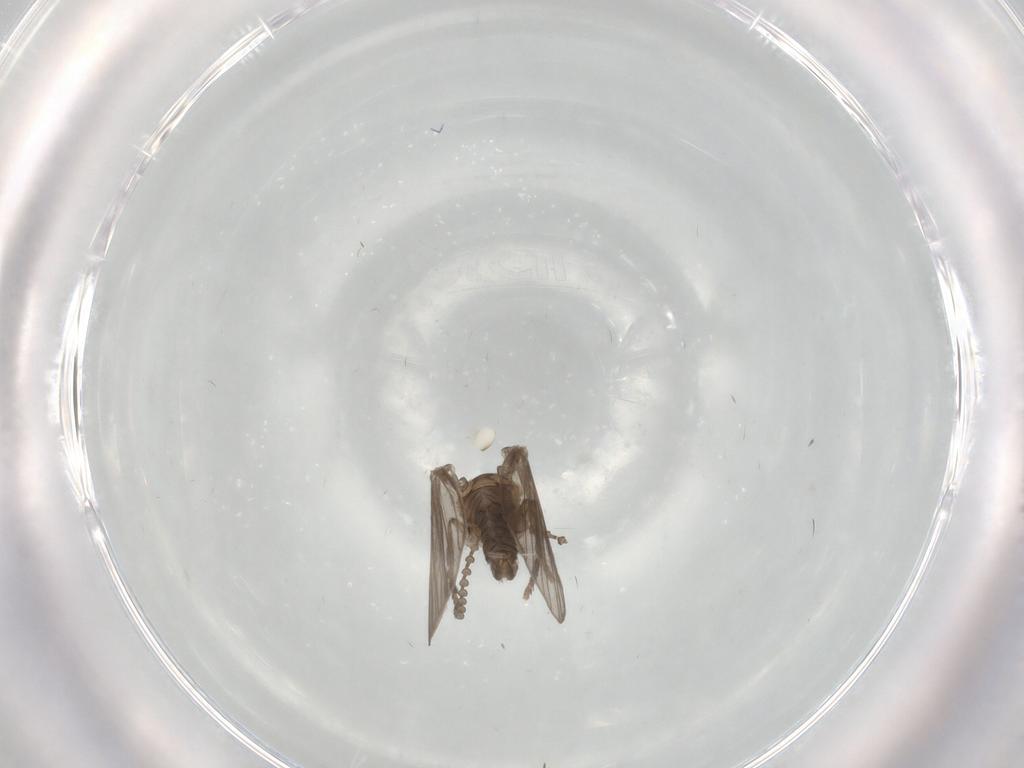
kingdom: Animalia
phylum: Arthropoda
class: Insecta
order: Diptera
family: Psychodidae
